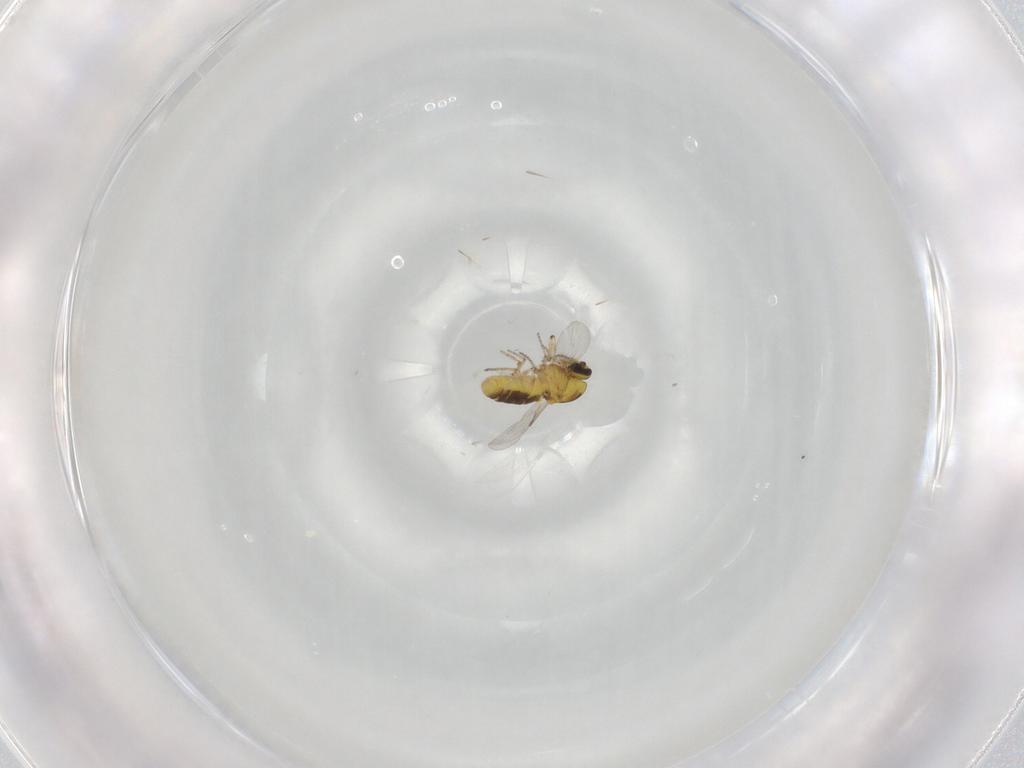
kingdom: Animalia
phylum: Arthropoda
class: Insecta
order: Diptera
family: Ceratopogonidae
